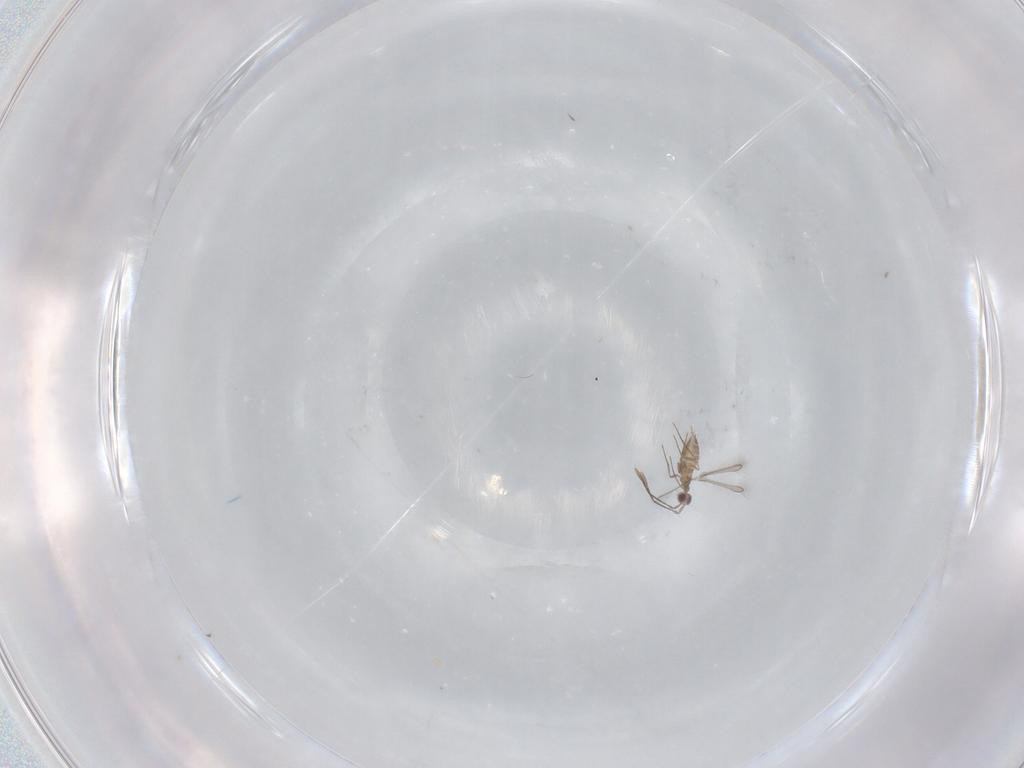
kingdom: Animalia
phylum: Arthropoda
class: Insecta
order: Hymenoptera
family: Mymaridae
